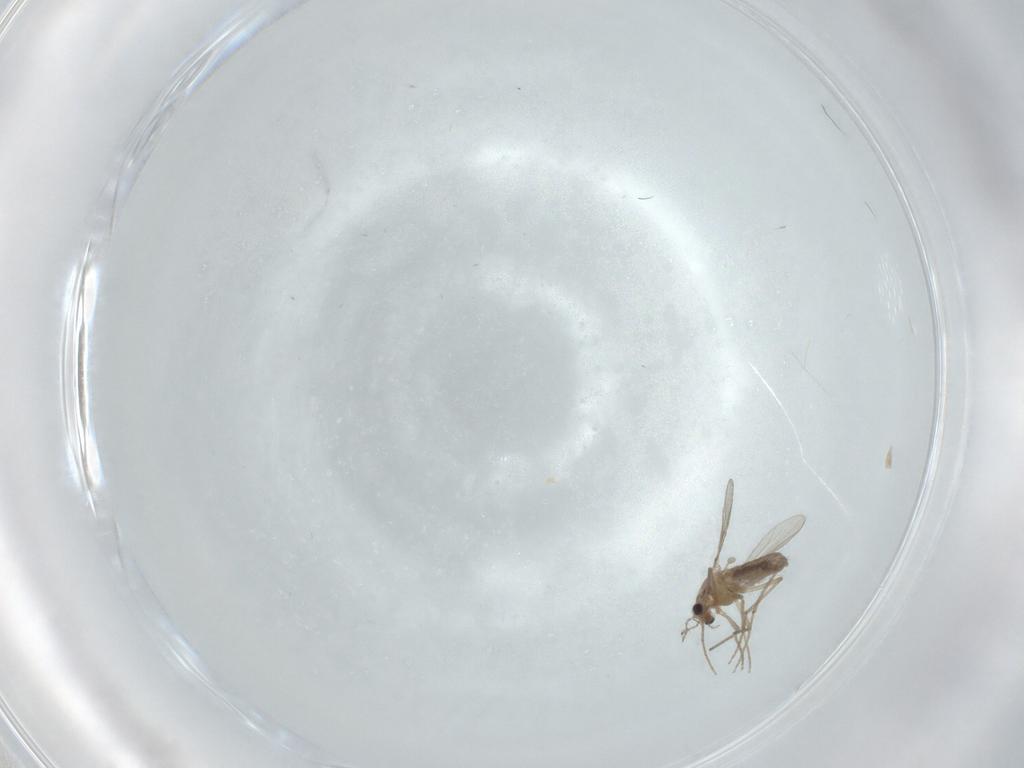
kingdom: Animalia
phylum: Arthropoda
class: Insecta
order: Diptera
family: Chironomidae
